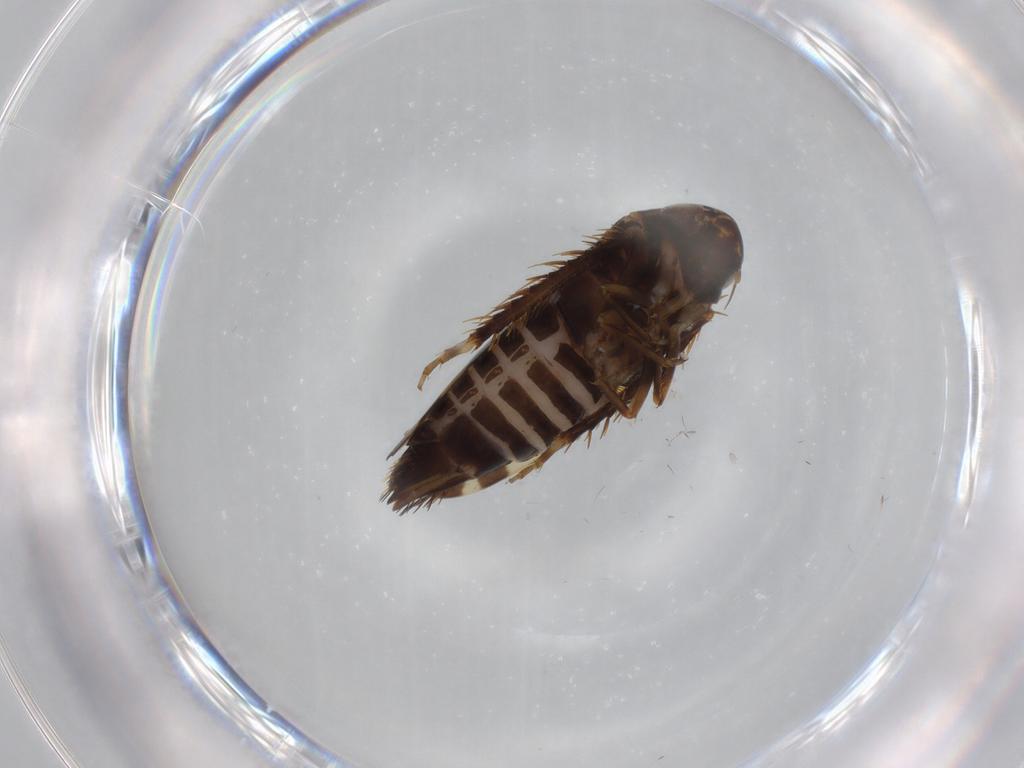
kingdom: Animalia
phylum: Arthropoda
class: Insecta
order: Hemiptera
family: Cicadellidae
